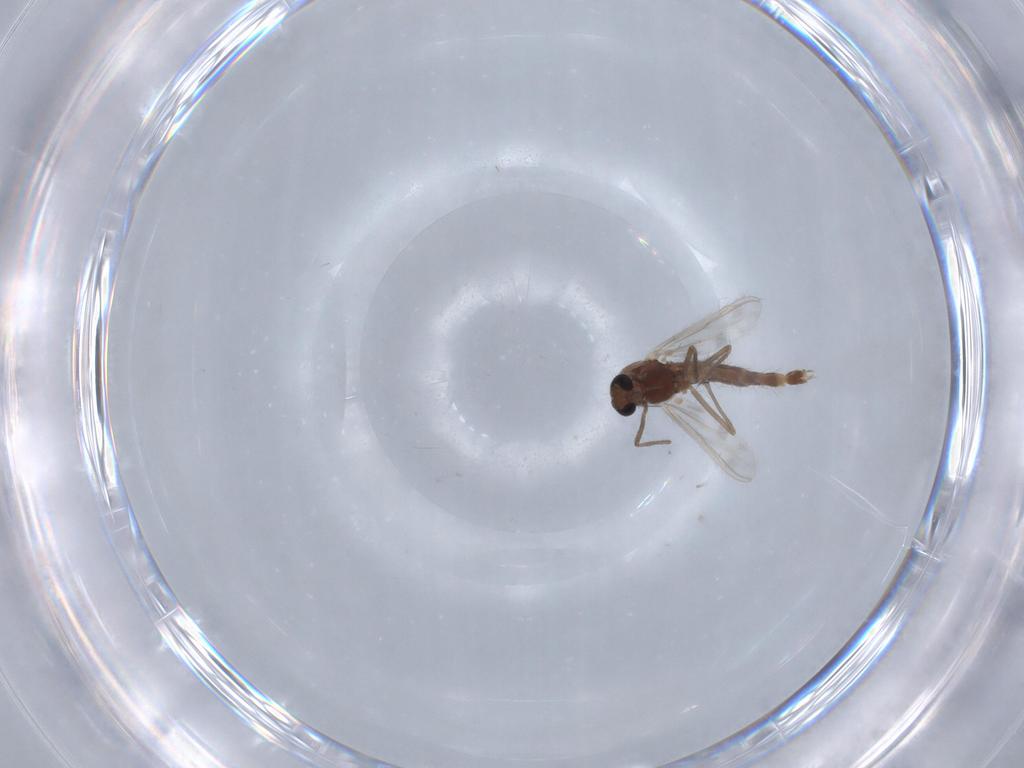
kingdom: Animalia
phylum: Arthropoda
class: Insecta
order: Diptera
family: Chironomidae
